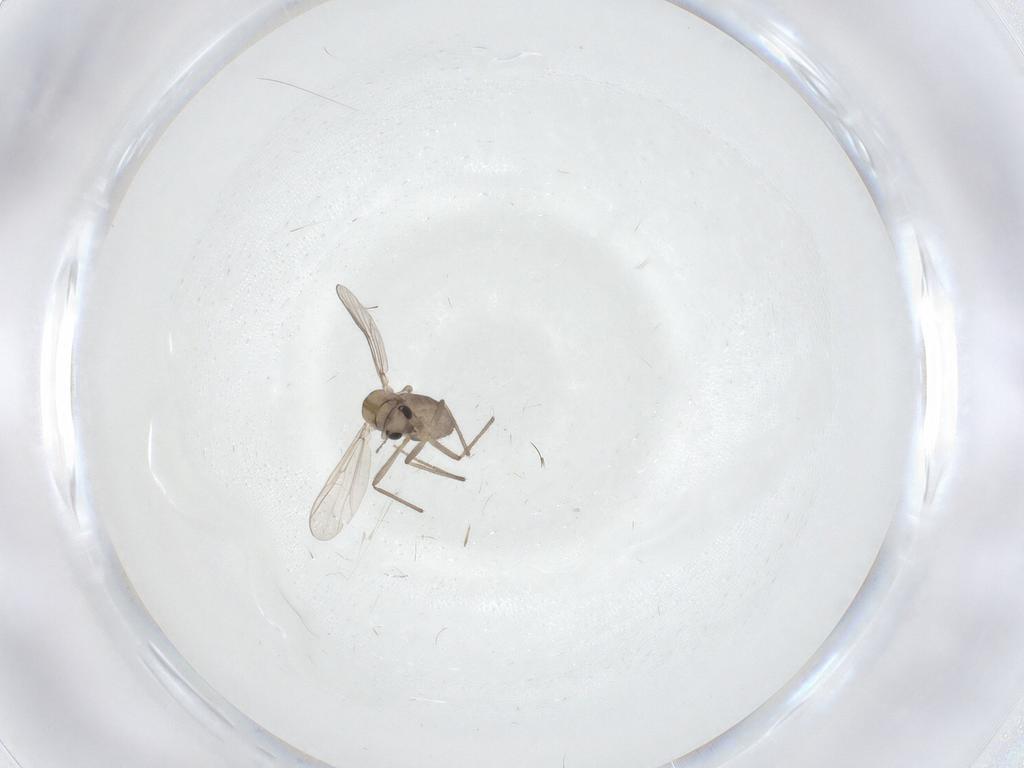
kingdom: Animalia
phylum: Arthropoda
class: Insecta
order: Diptera
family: Chironomidae
